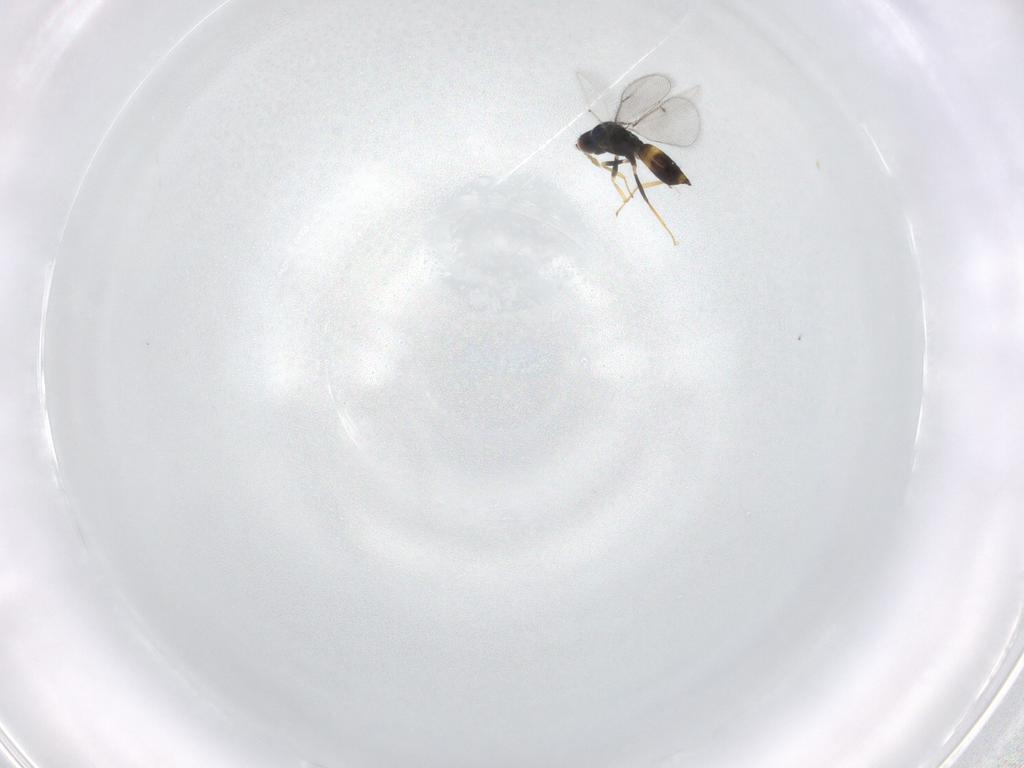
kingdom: Animalia
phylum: Arthropoda
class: Insecta
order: Hymenoptera
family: Eulophidae
